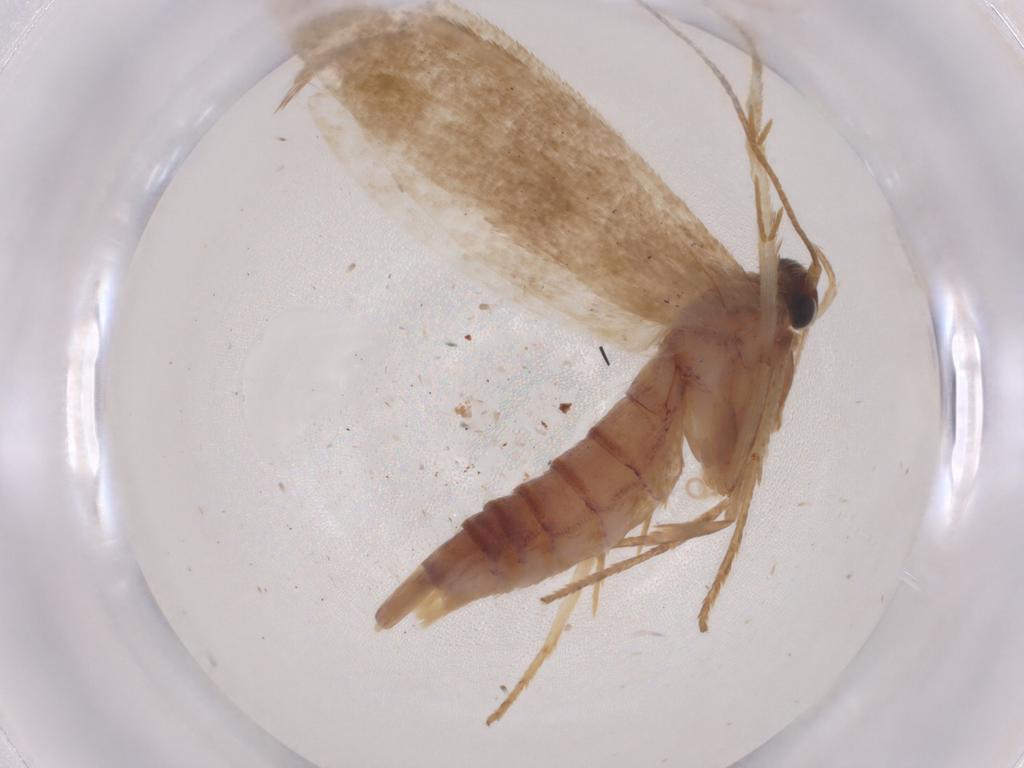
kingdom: Animalia
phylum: Arthropoda
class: Insecta
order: Lepidoptera
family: Blastobasidae
